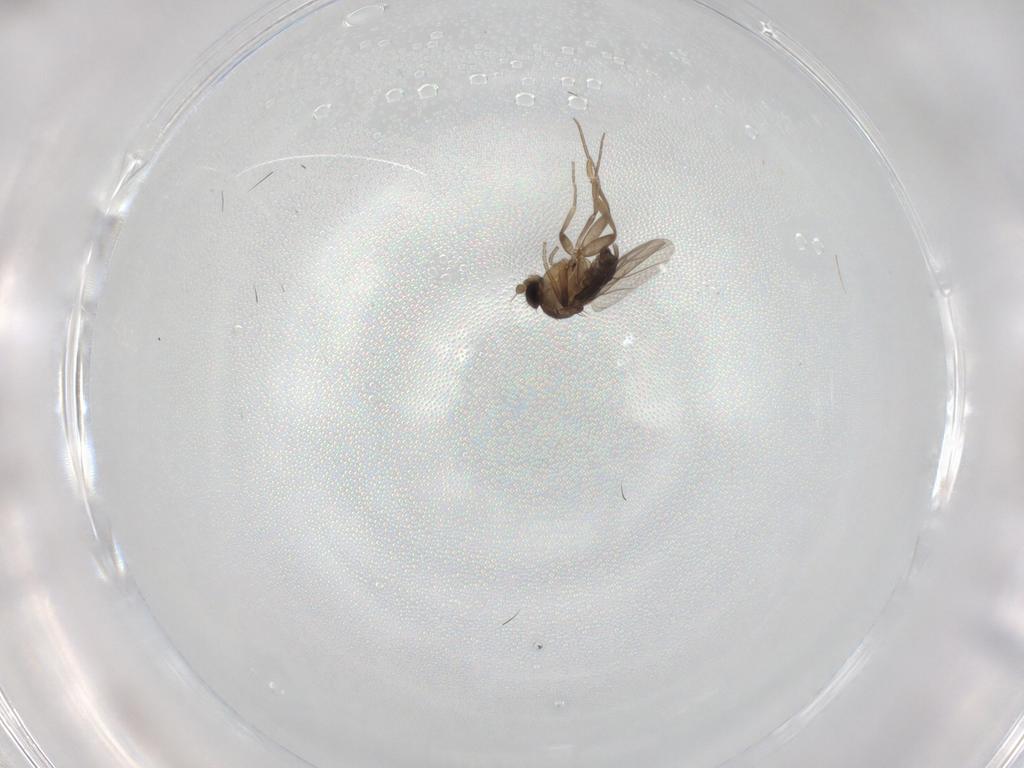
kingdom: Animalia
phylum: Arthropoda
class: Insecta
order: Diptera
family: Phoridae
